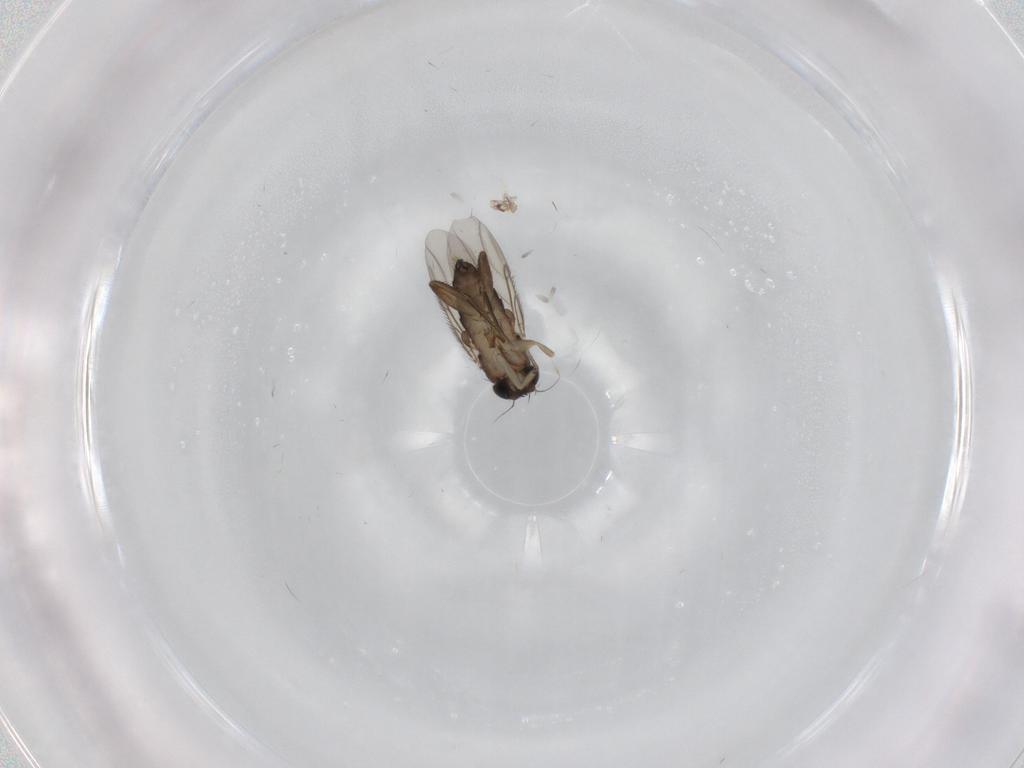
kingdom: Animalia
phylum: Arthropoda
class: Insecta
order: Diptera
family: Phoridae
